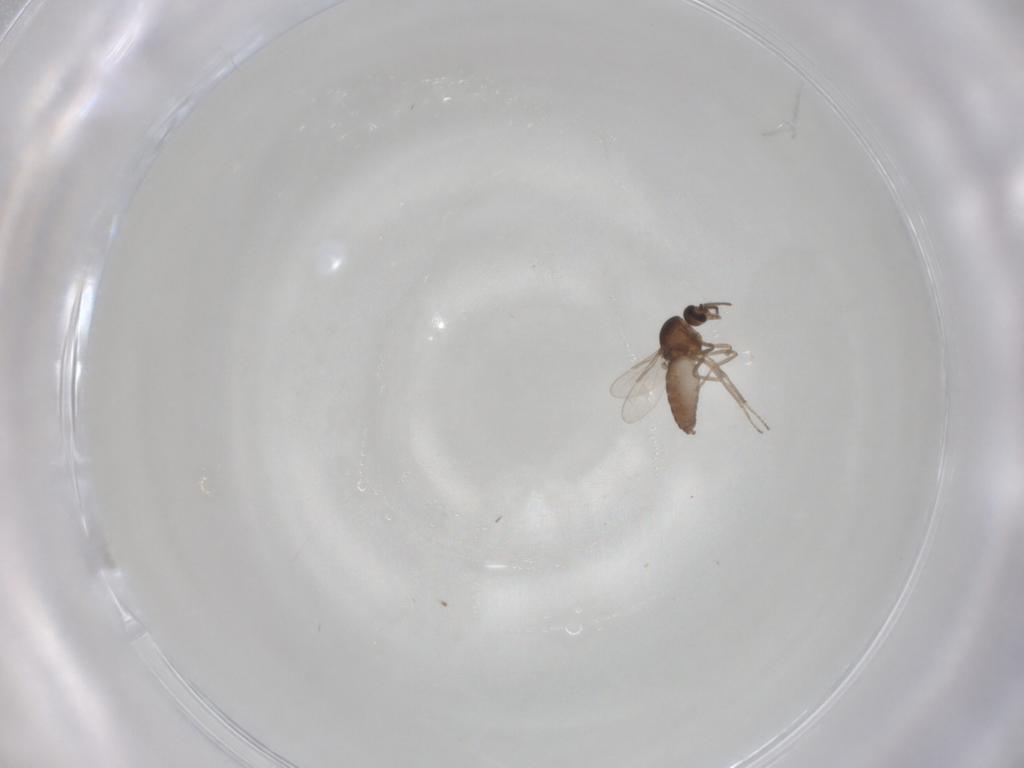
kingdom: Animalia
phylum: Arthropoda
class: Insecta
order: Diptera
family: Ceratopogonidae
